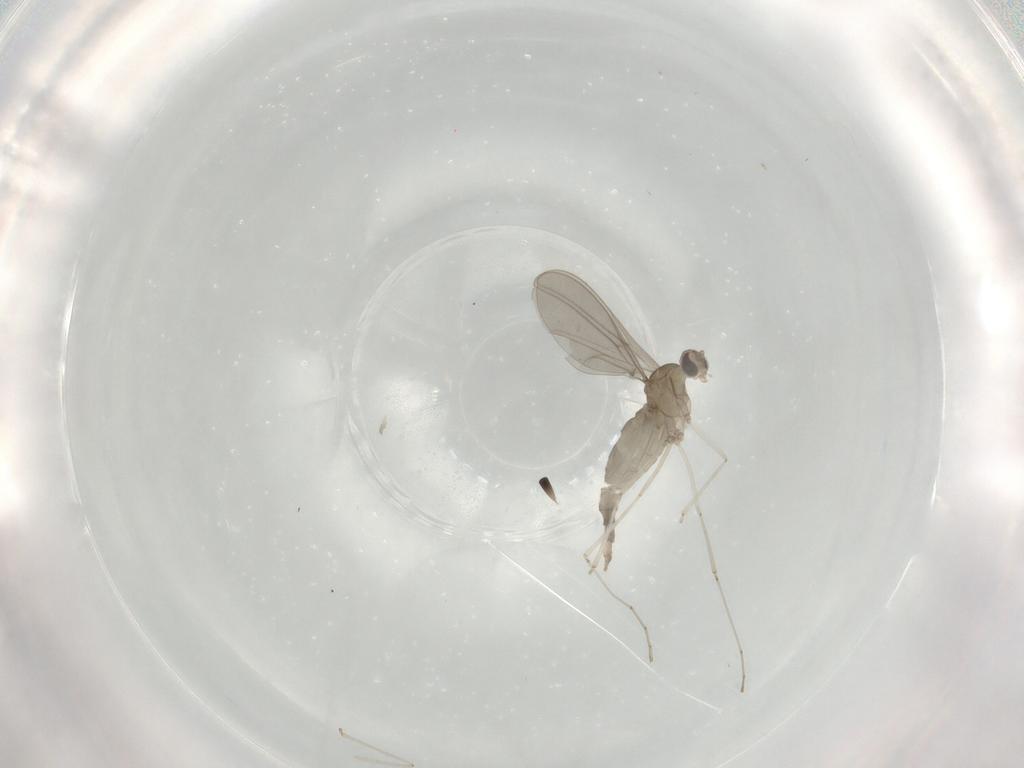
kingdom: Animalia
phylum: Arthropoda
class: Insecta
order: Diptera
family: Cecidomyiidae
